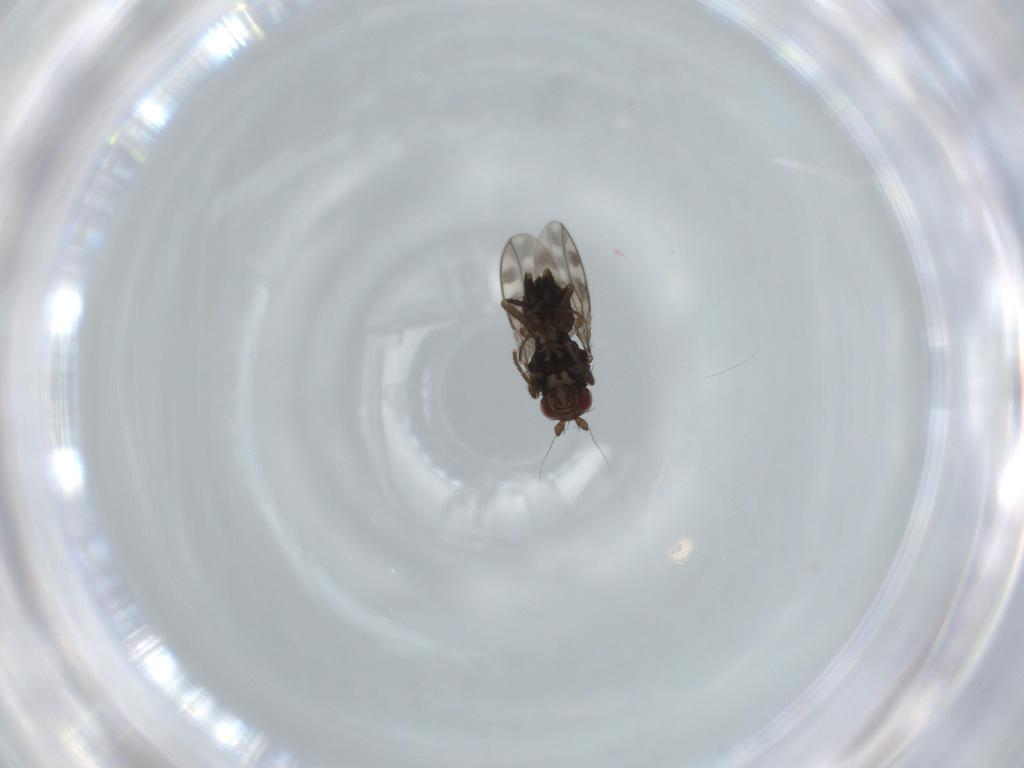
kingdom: Animalia
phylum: Arthropoda
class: Insecta
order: Diptera
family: Sphaeroceridae
